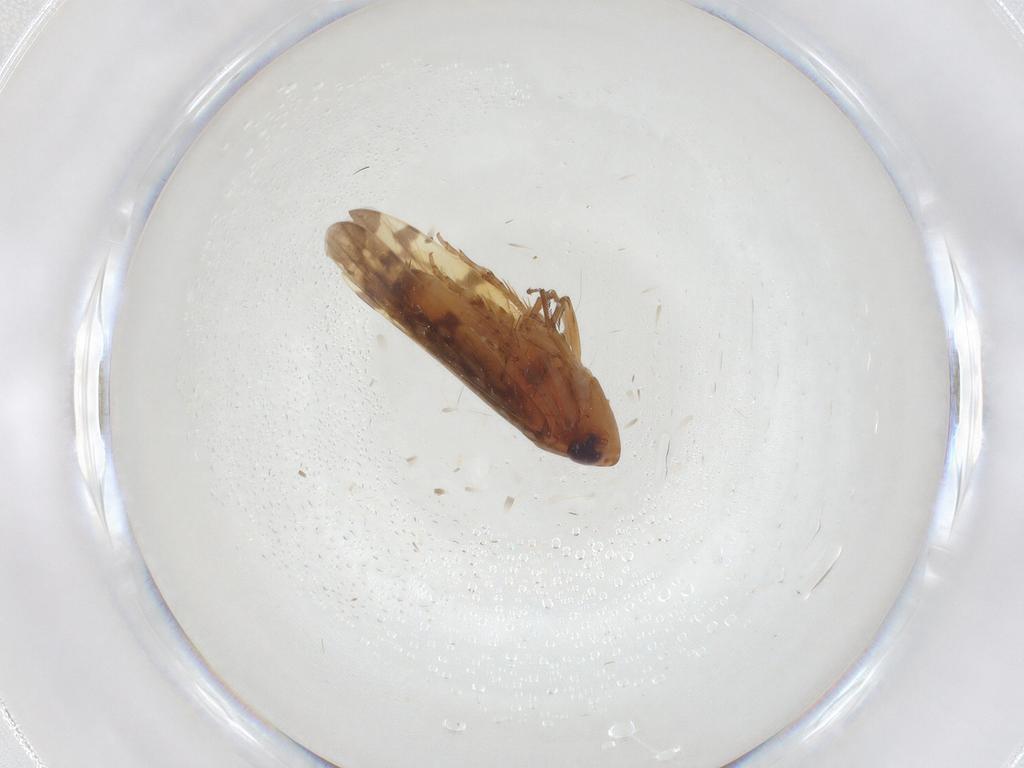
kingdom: Animalia
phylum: Arthropoda
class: Insecta
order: Hemiptera
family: Cicadellidae
